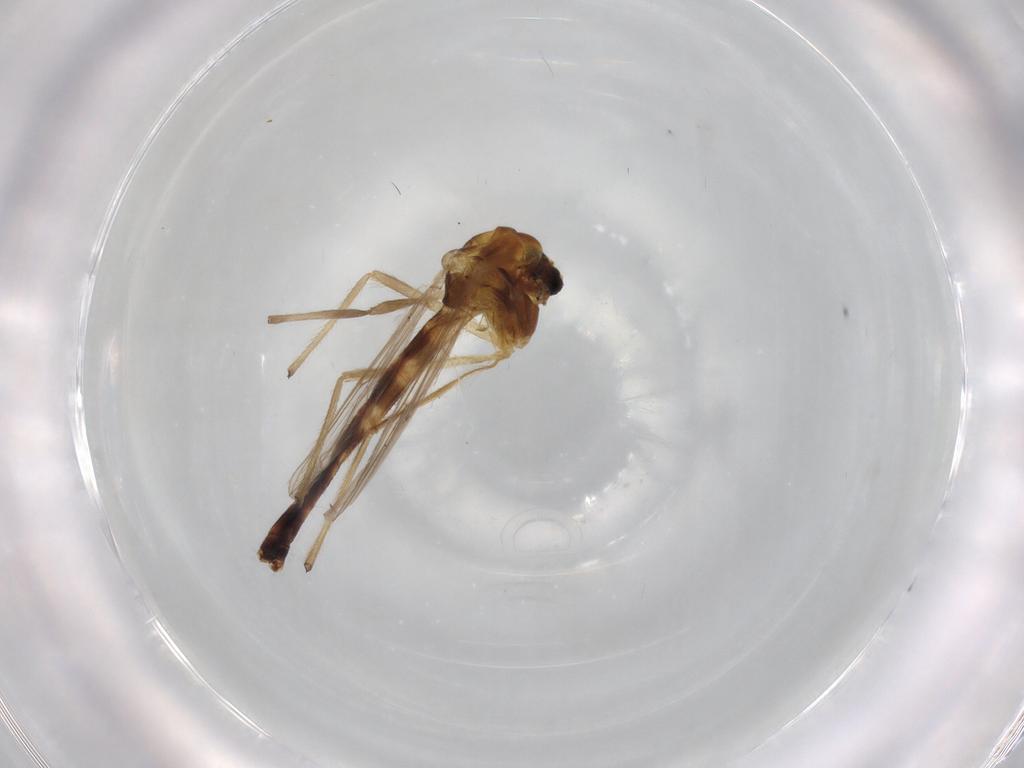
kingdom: Animalia
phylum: Arthropoda
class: Insecta
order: Diptera
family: Chironomidae
